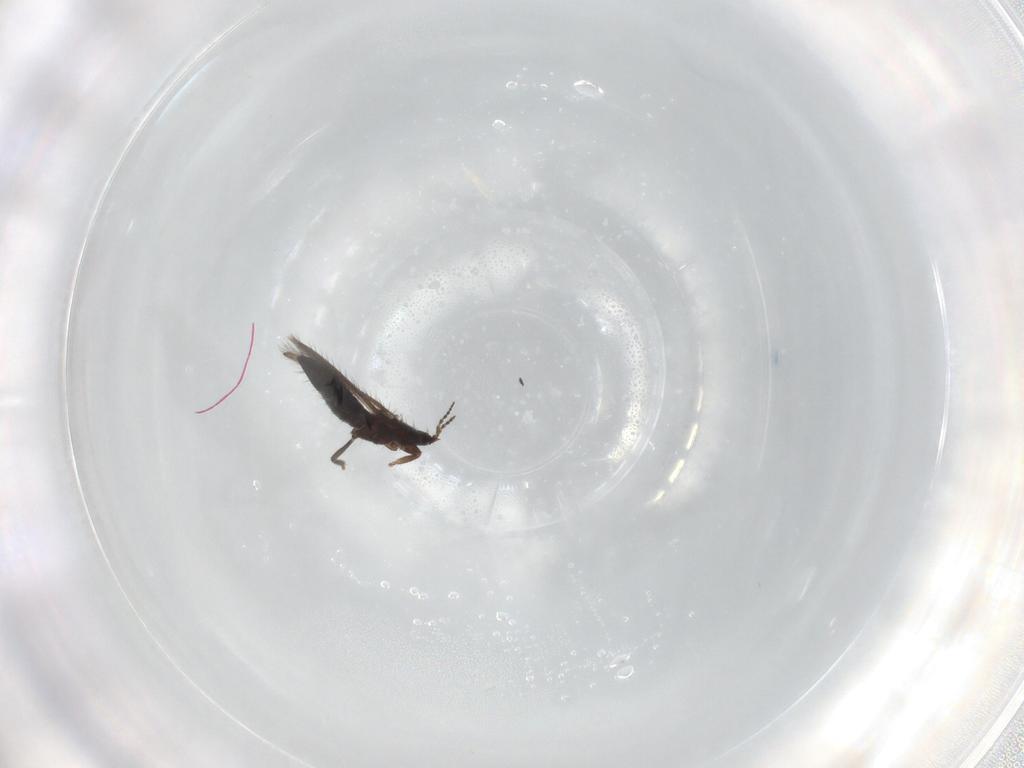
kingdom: Animalia
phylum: Arthropoda
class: Insecta
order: Thysanoptera
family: Melanthripidae
